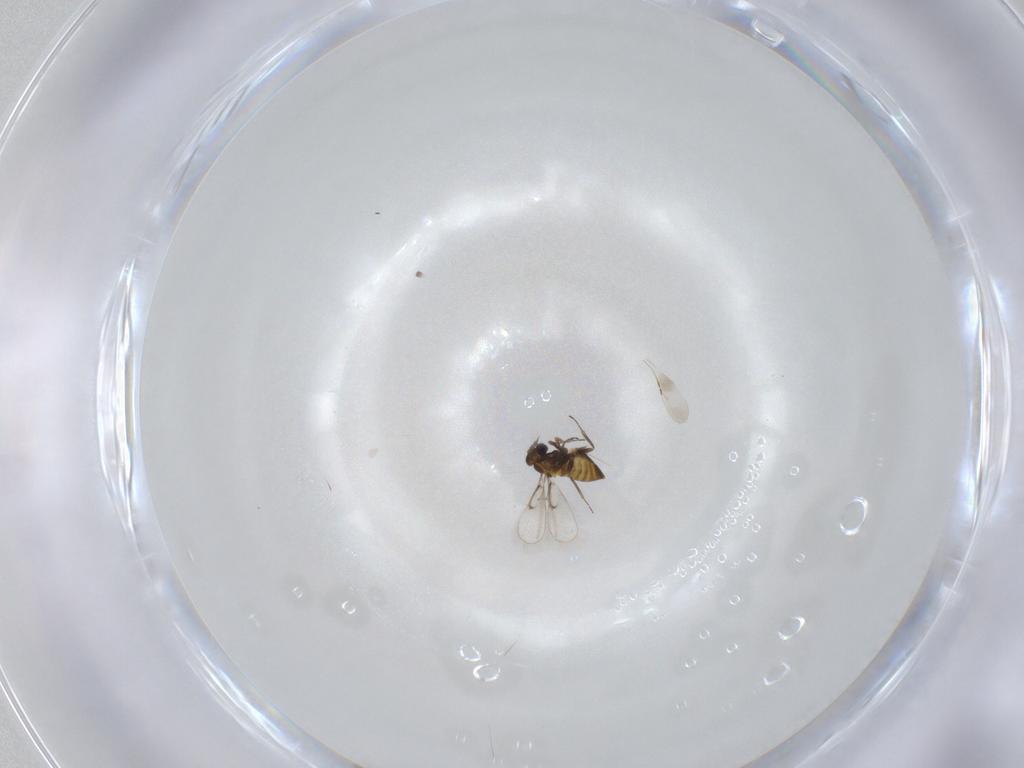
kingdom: Animalia
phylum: Arthropoda
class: Insecta
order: Hymenoptera
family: Trichogrammatidae
